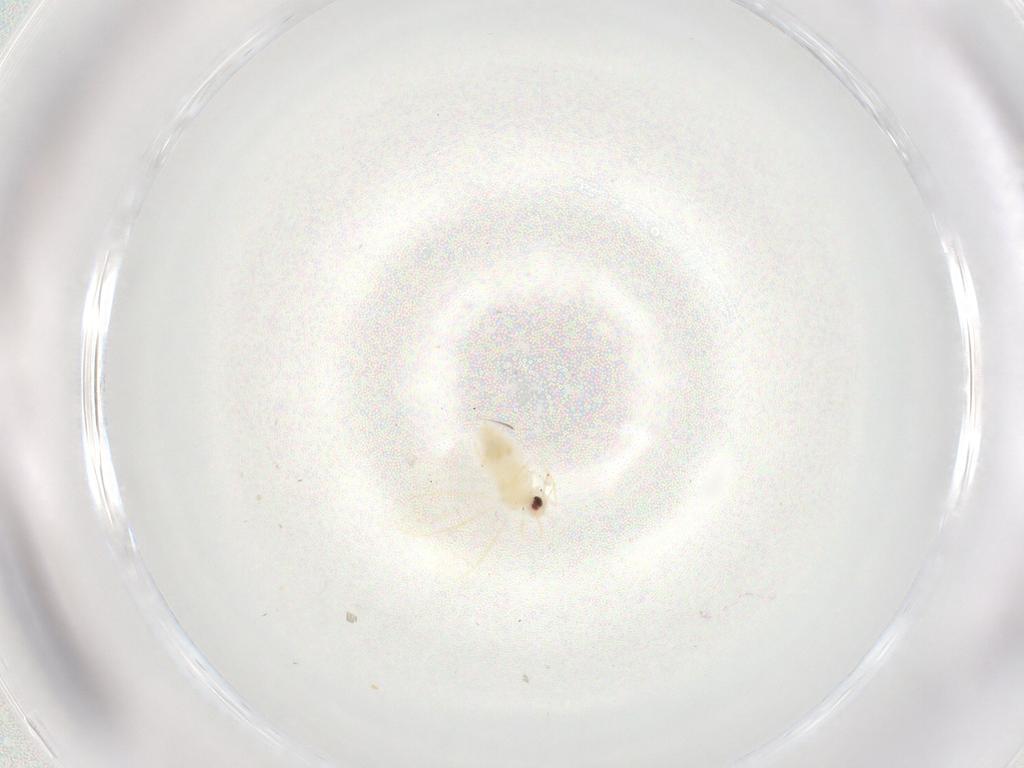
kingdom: Animalia
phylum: Arthropoda
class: Insecta
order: Hemiptera
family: Aleyrodidae
